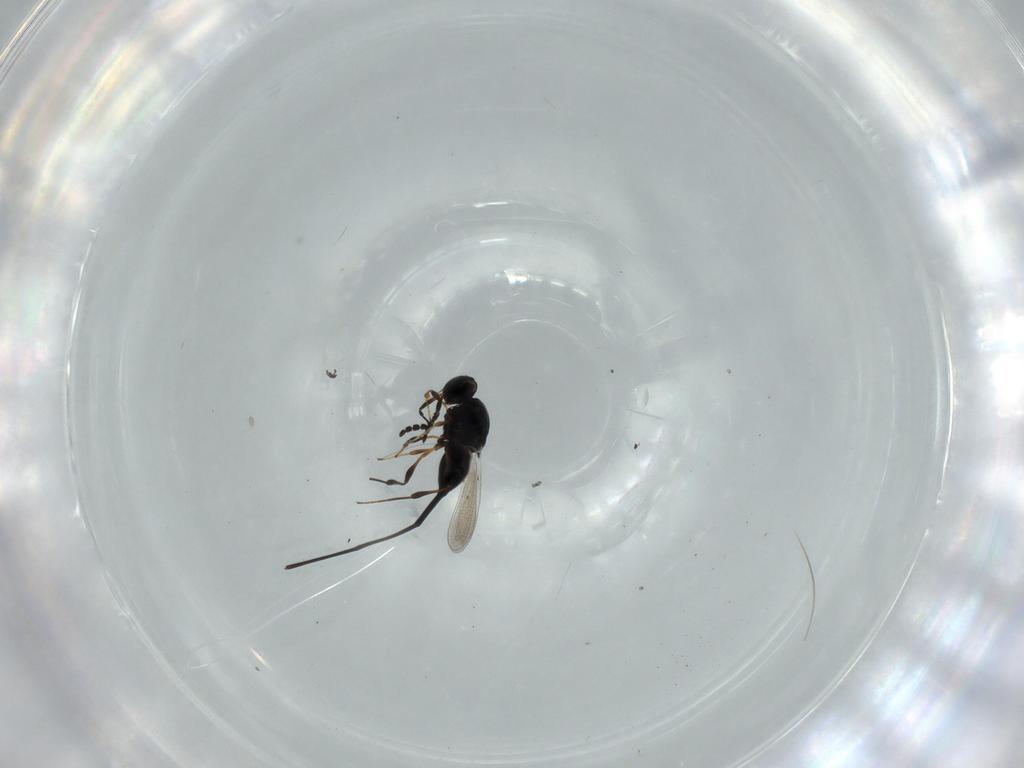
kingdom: Animalia
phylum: Arthropoda
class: Insecta
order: Hymenoptera
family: Platygastridae
